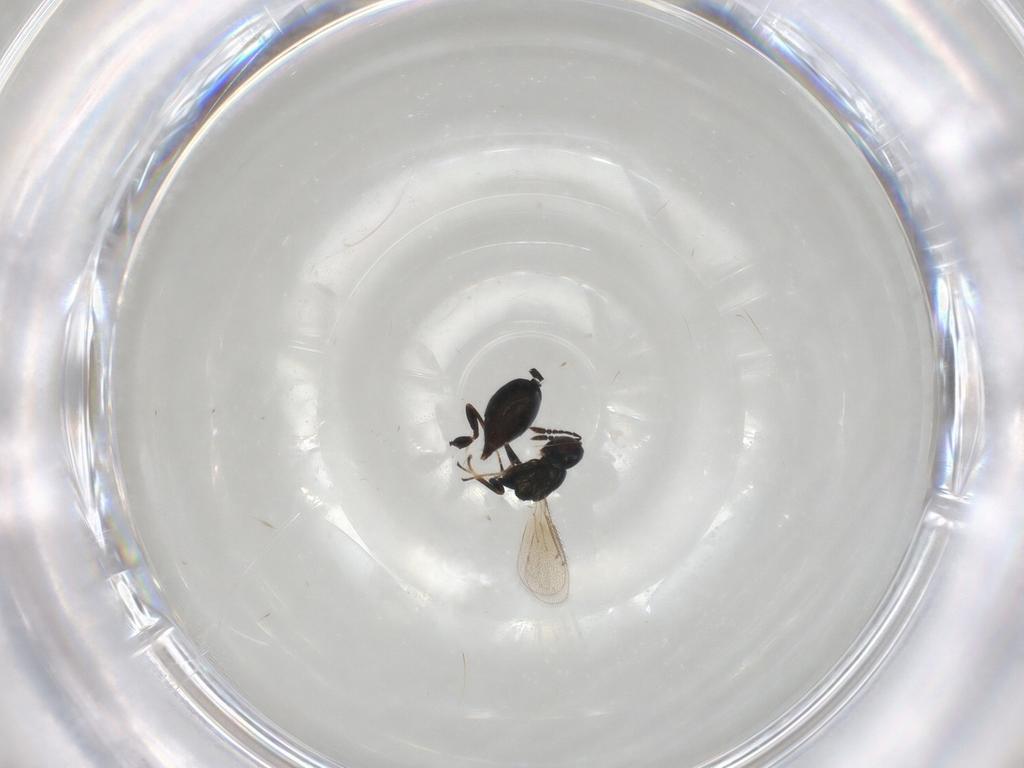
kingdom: Animalia
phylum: Arthropoda
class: Insecta
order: Hymenoptera
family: Eulophidae
